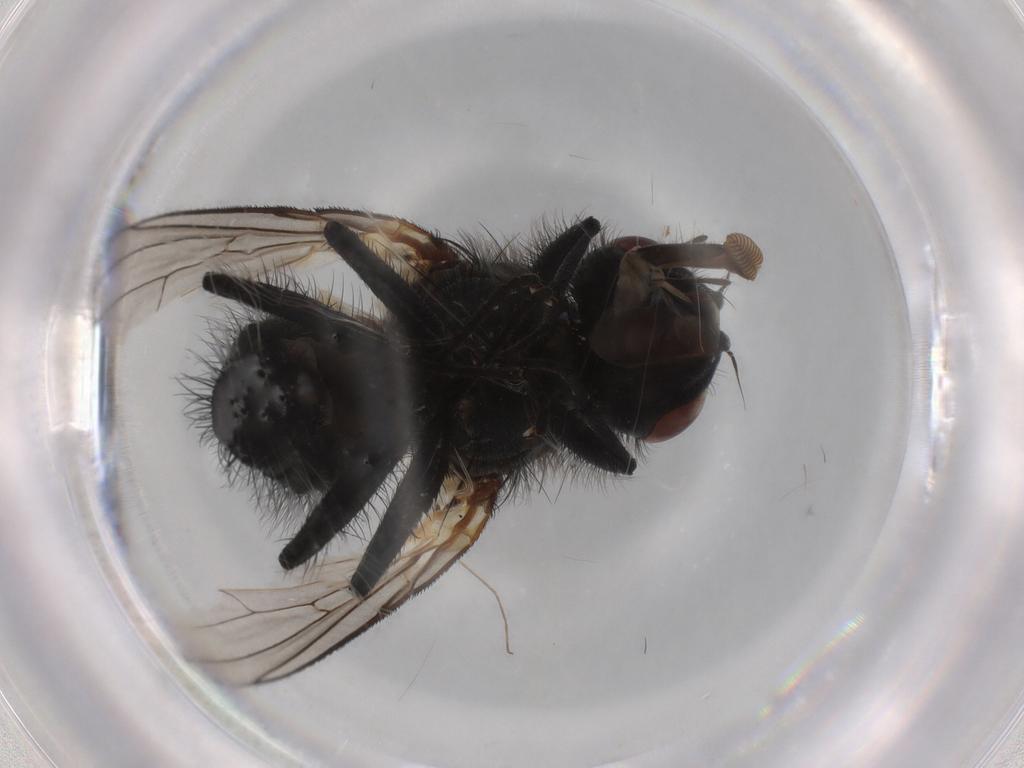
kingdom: Animalia
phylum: Arthropoda
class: Insecta
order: Diptera
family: Anthomyiidae
